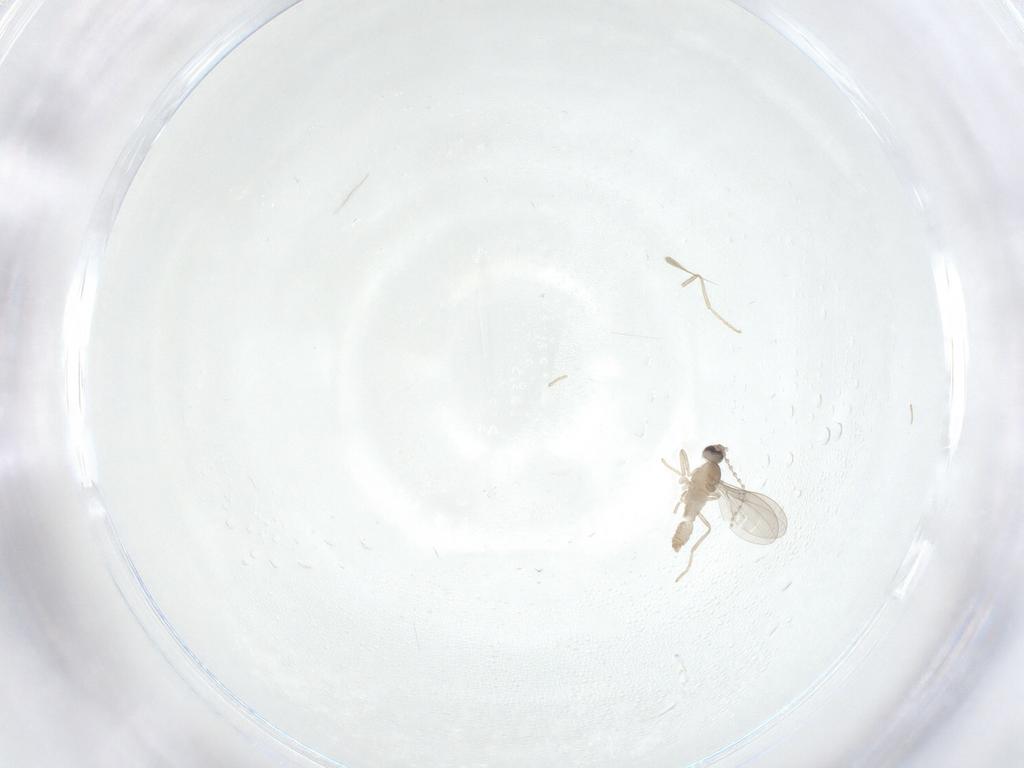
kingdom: Animalia
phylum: Arthropoda
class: Insecta
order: Diptera
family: Cecidomyiidae
